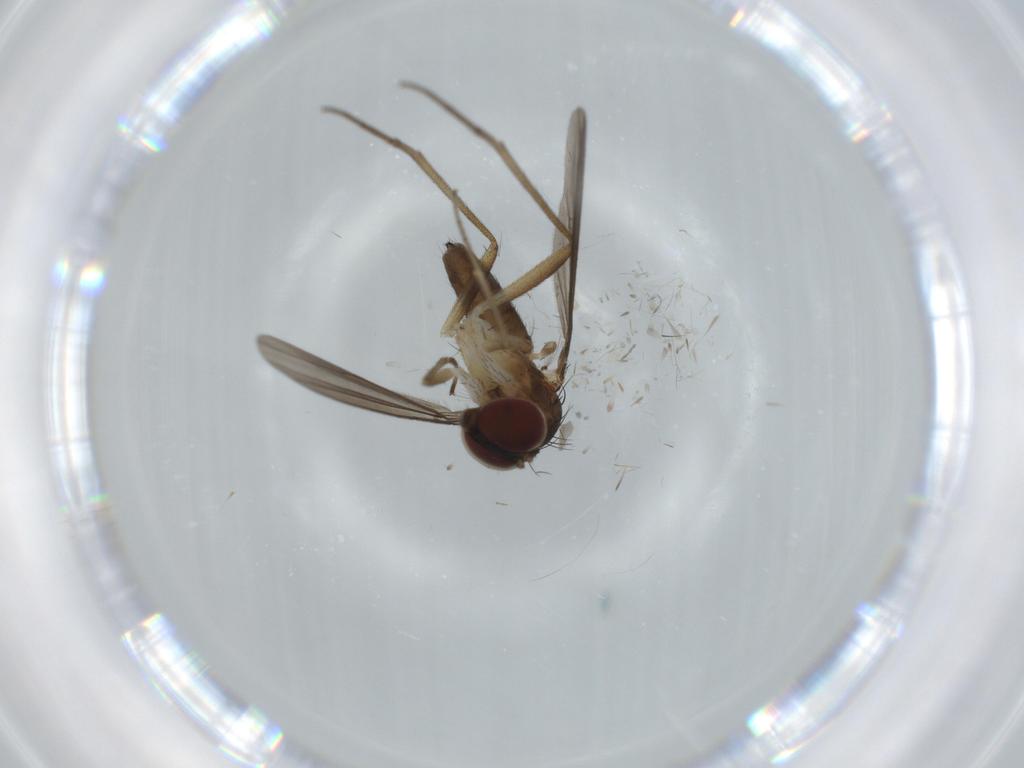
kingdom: Animalia
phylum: Arthropoda
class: Insecta
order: Diptera
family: Dolichopodidae
